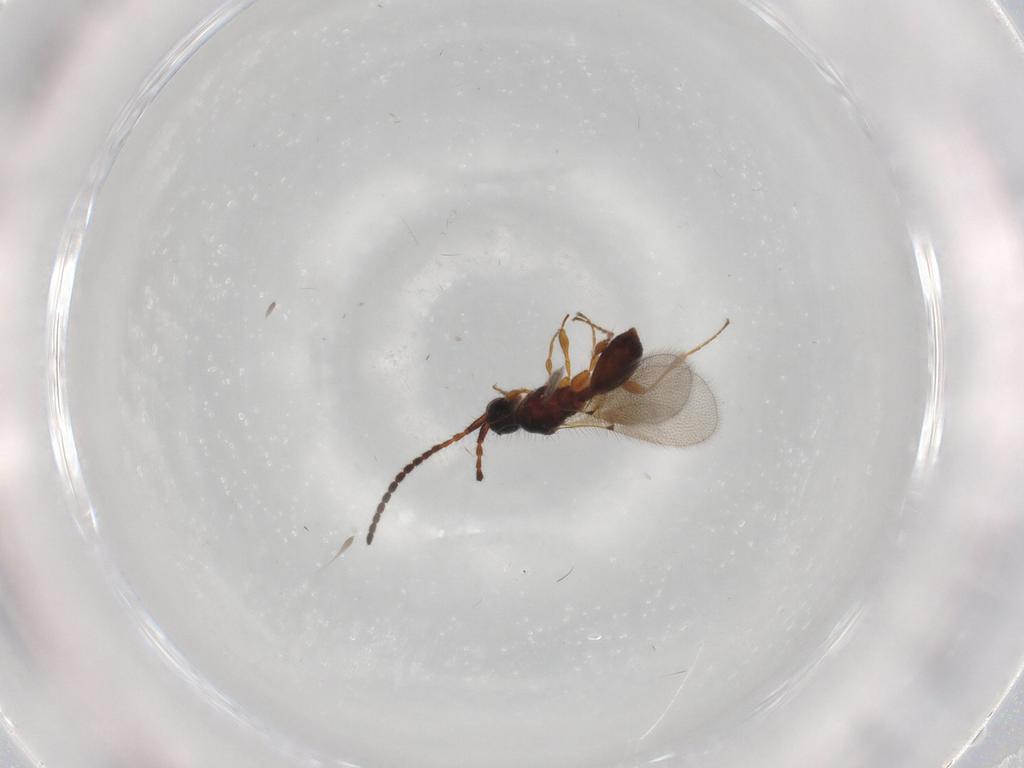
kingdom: Animalia
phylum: Arthropoda
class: Insecta
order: Hymenoptera
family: Diapriidae
